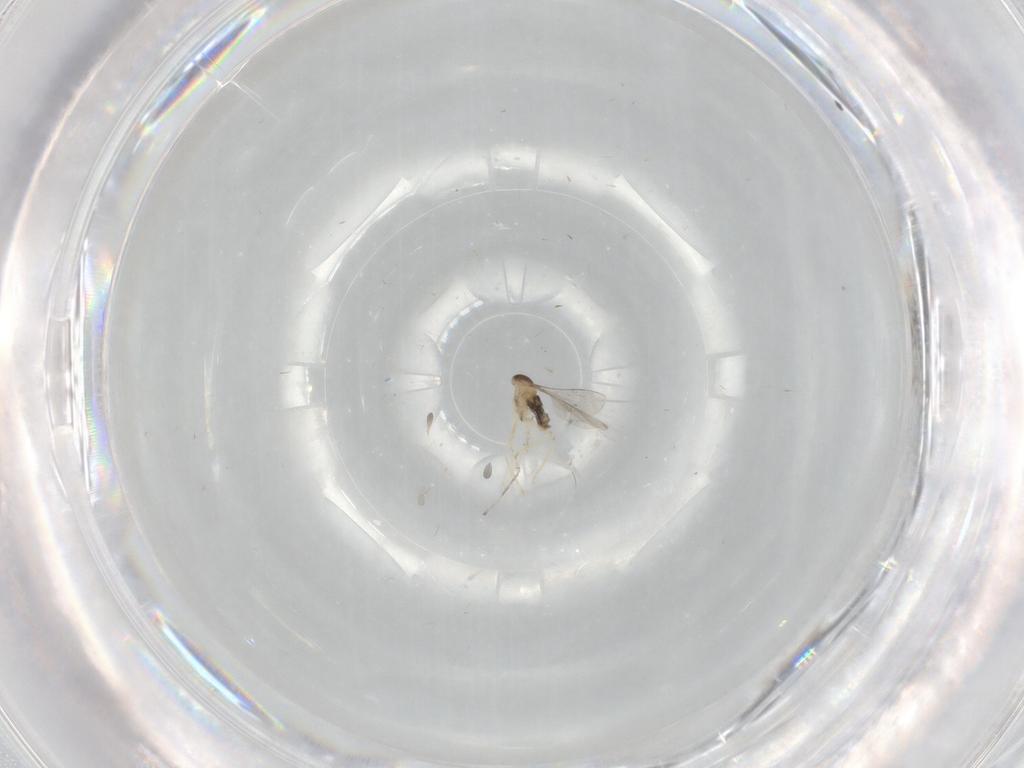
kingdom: Animalia
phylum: Arthropoda
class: Insecta
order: Diptera
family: Cecidomyiidae
